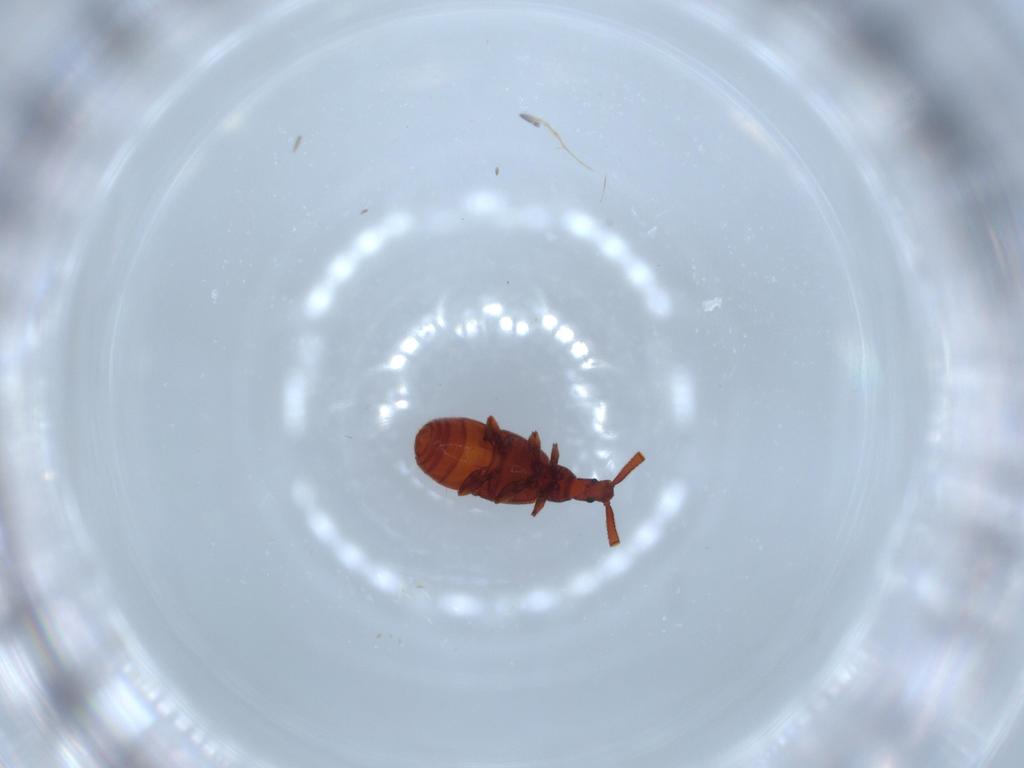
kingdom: Animalia
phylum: Arthropoda
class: Insecta
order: Coleoptera
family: Staphylinidae
